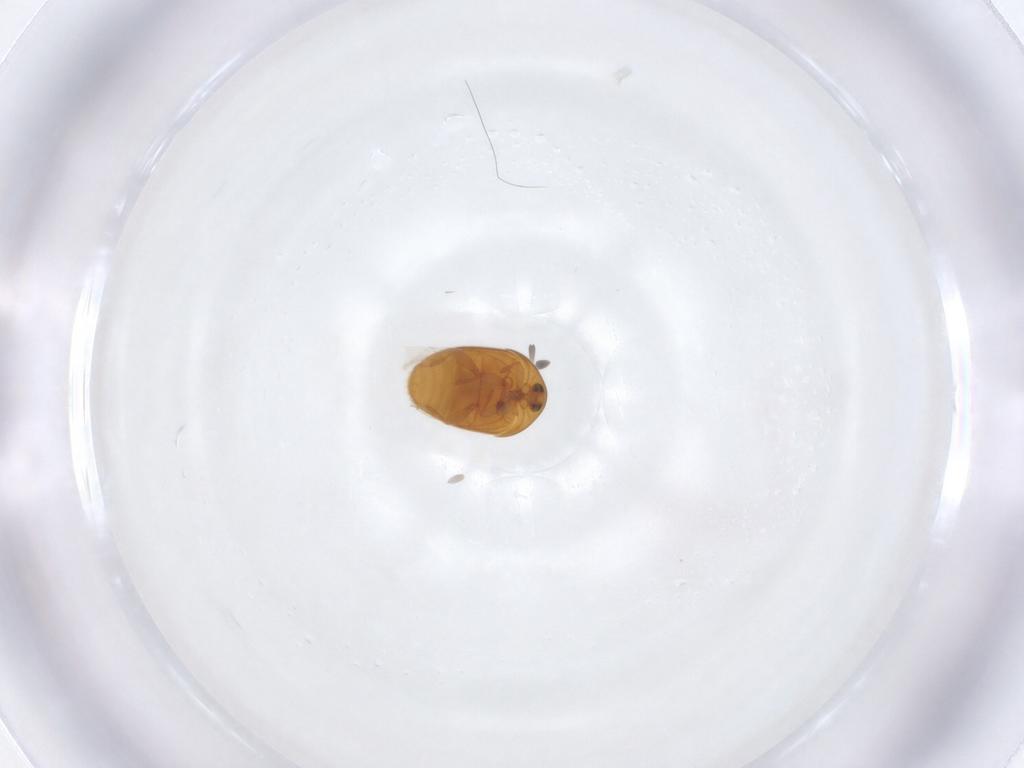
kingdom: Animalia
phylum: Arthropoda
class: Insecta
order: Coleoptera
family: Corylophidae
